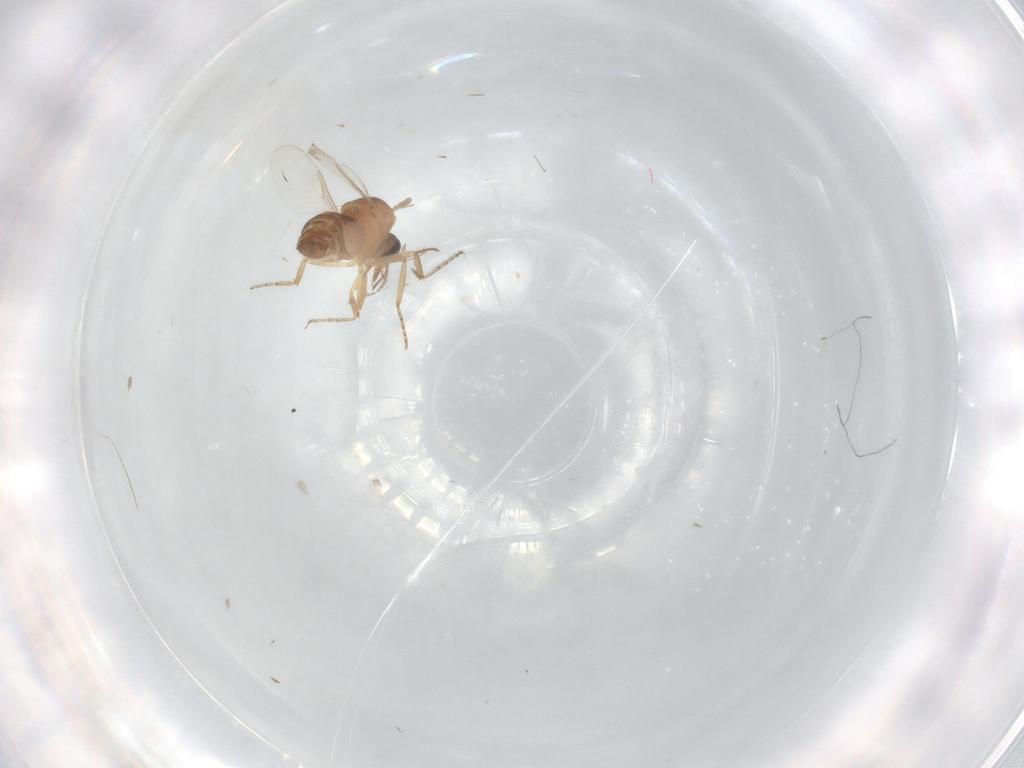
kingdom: Animalia
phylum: Arthropoda
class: Insecta
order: Diptera
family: Ceratopogonidae
